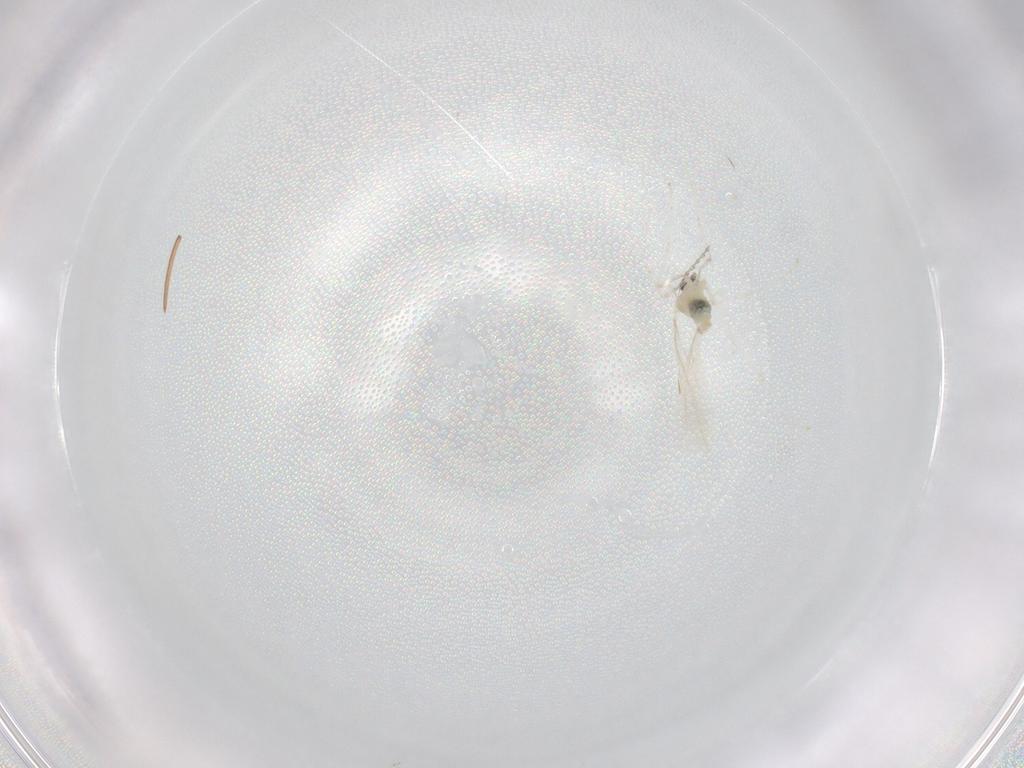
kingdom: Animalia
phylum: Arthropoda
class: Insecta
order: Diptera
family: Cecidomyiidae
